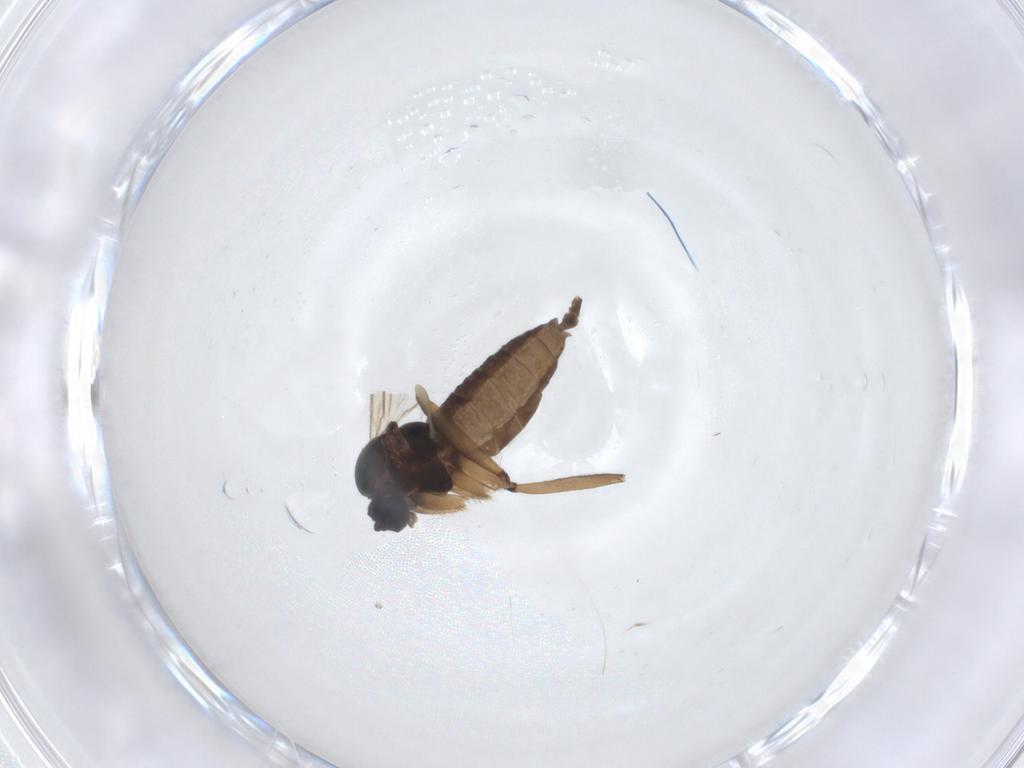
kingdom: Animalia
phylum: Arthropoda
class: Insecta
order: Diptera
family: Sciaridae
